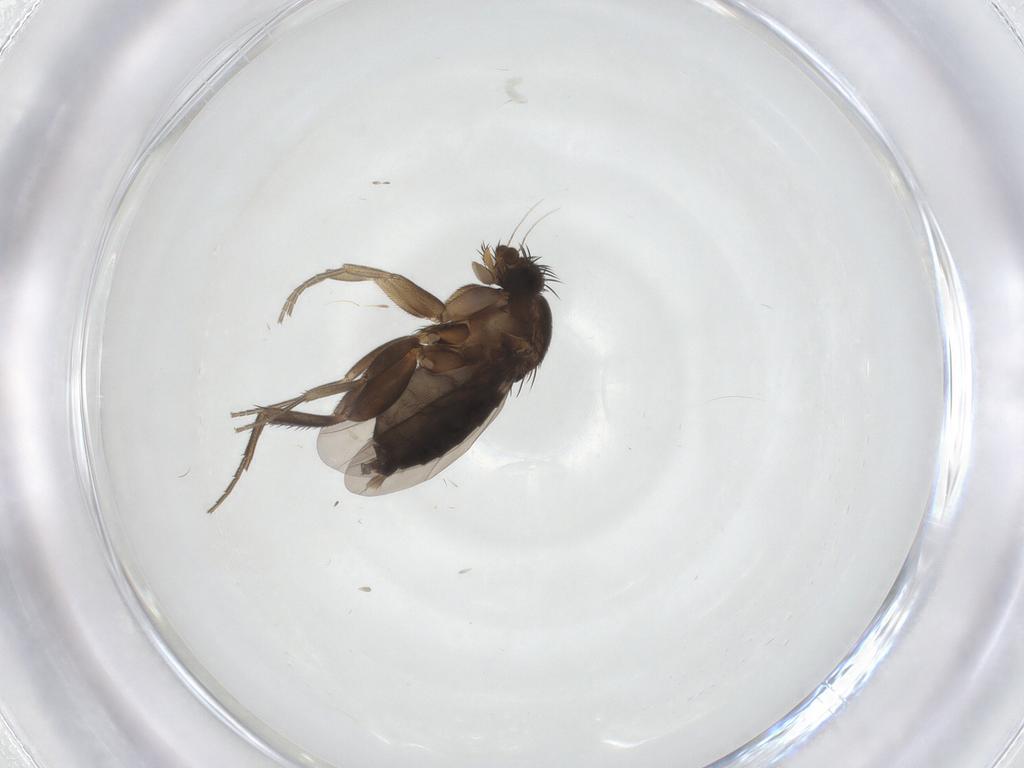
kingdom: Animalia
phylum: Arthropoda
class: Insecta
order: Diptera
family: Phoridae
